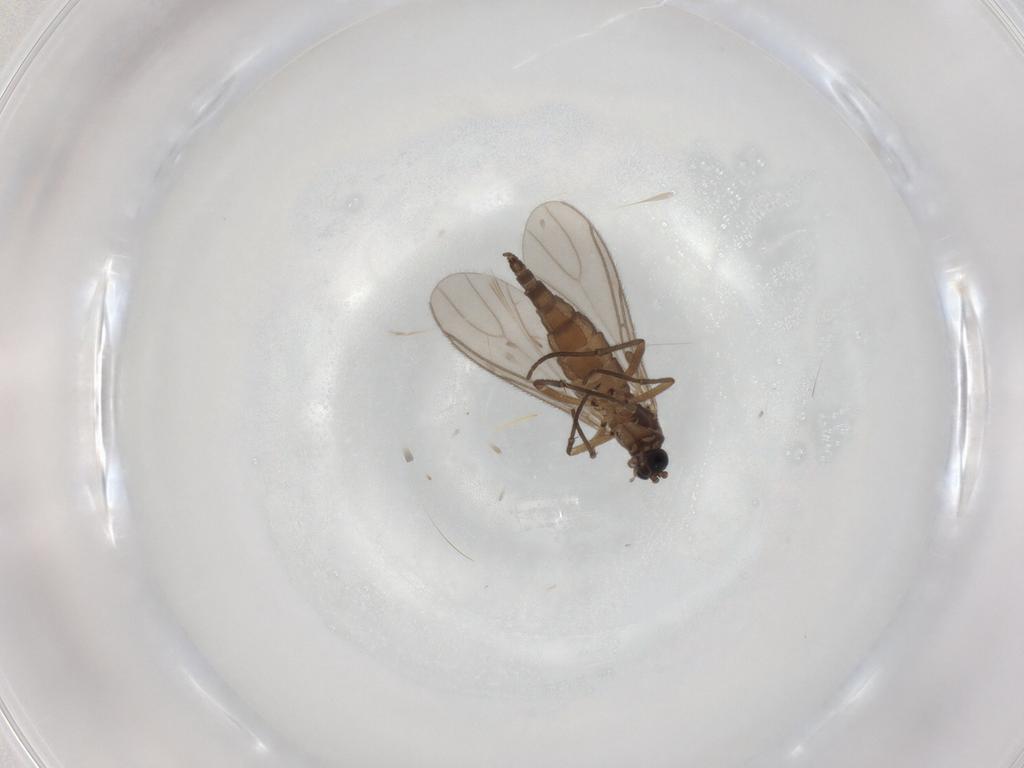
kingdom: Animalia
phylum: Arthropoda
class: Insecta
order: Diptera
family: Sciaridae
